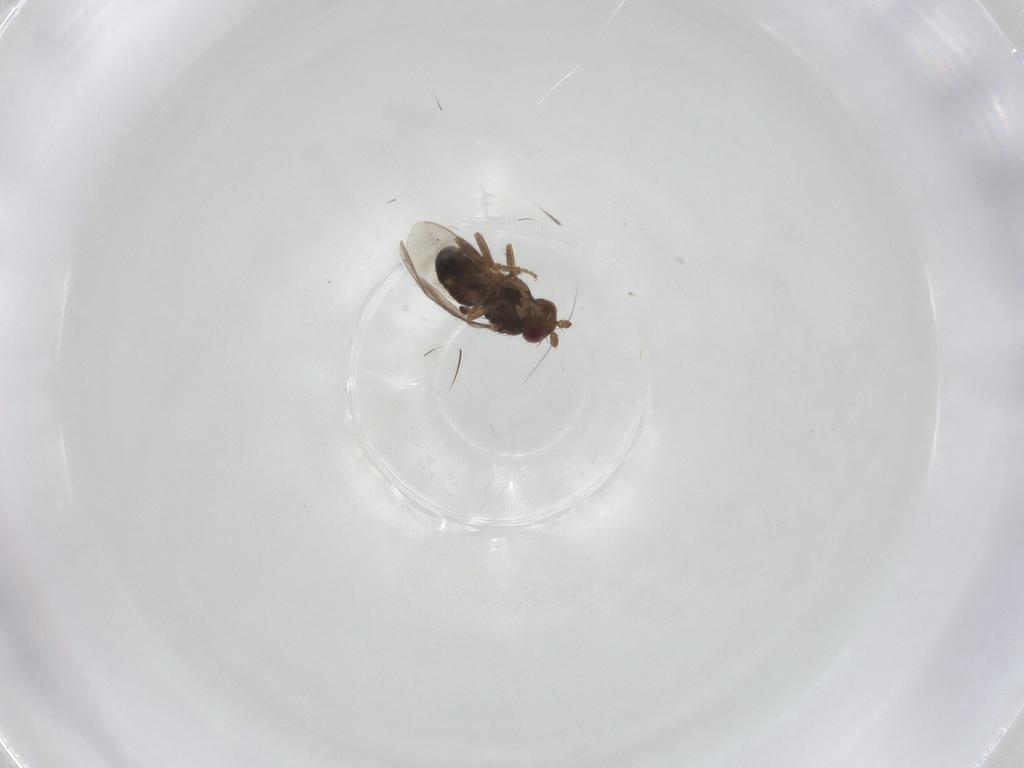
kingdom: Animalia
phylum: Arthropoda
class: Insecta
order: Diptera
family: Sphaeroceridae
